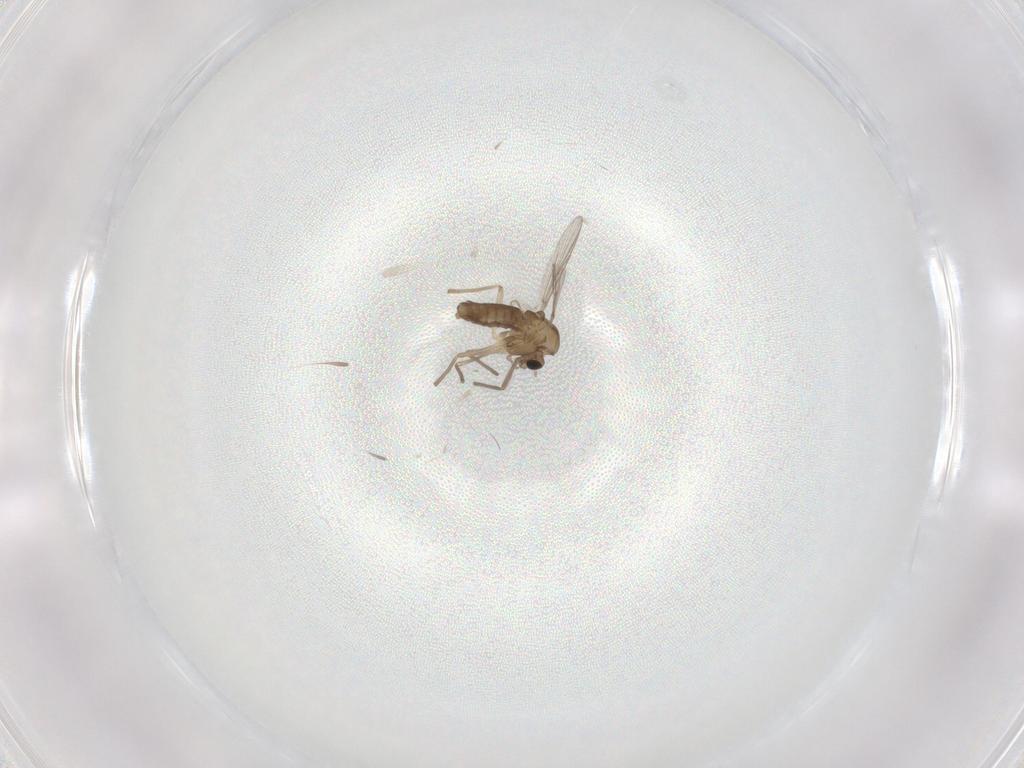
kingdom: Animalia
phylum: Arthropoda
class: Insecta
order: Diptera
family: Chironomidae
